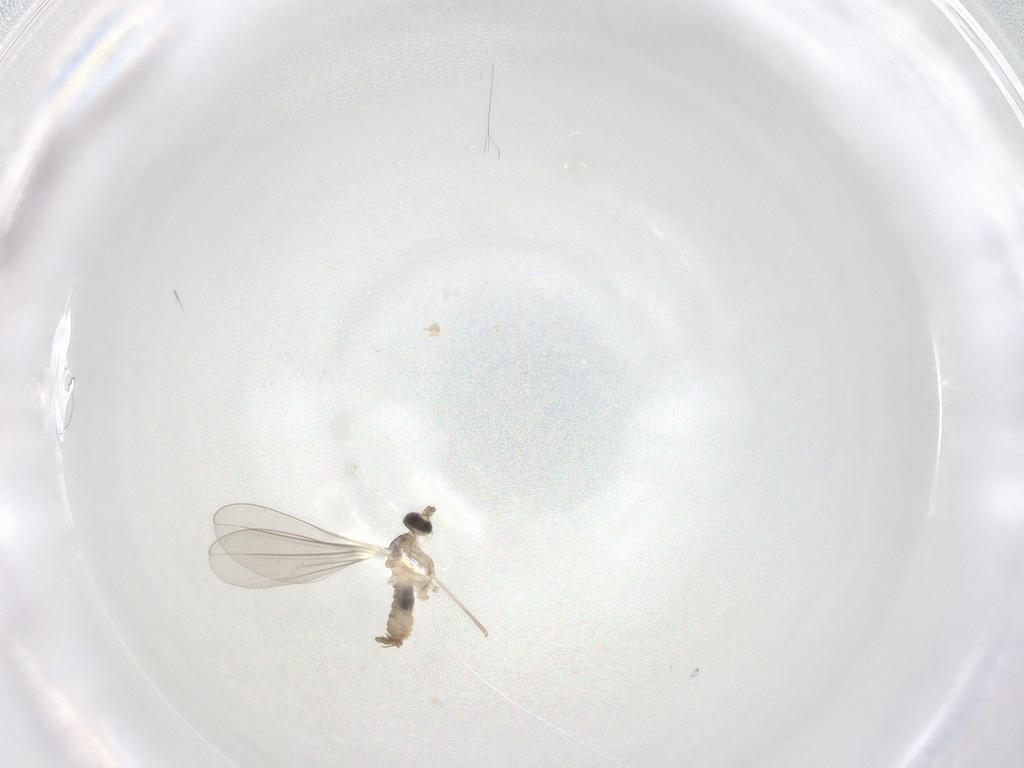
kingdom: Animalia
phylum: Arthropoda
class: Insecta
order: Diptera
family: Cecidomyiidae
